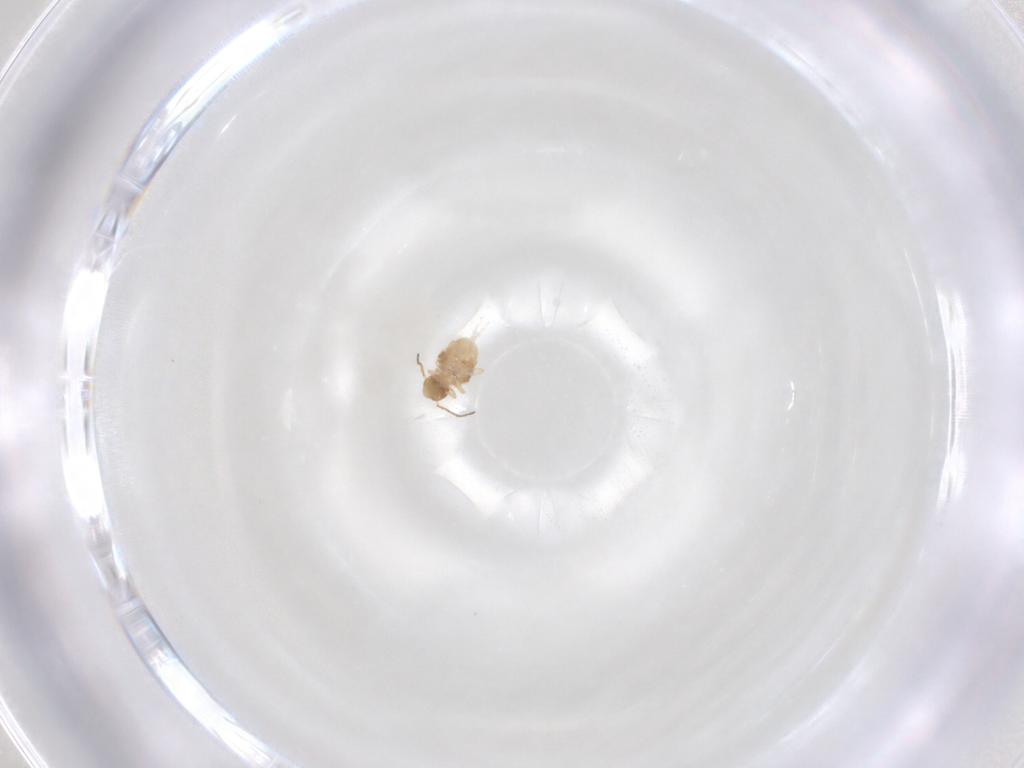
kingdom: Animalia
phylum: Arthropoda
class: Collembola
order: Symphypleona
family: Katiannidae
